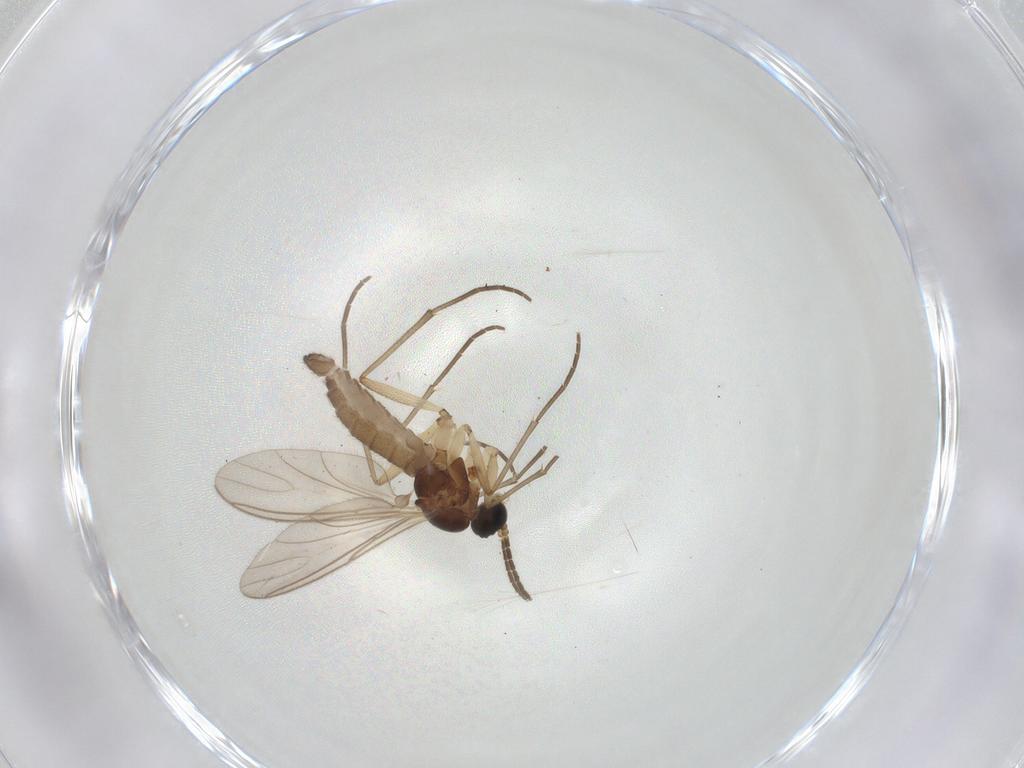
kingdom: Animalia
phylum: Arthropoda
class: Insecta
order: Diptera
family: Sciaridae
